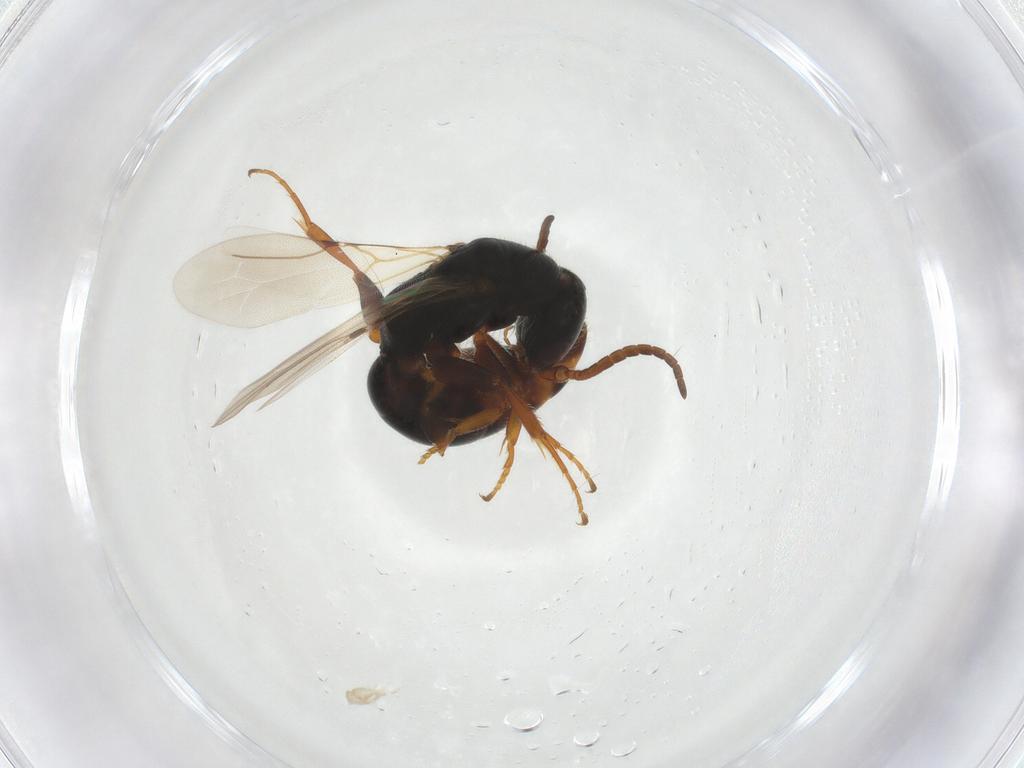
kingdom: Animalia
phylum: Arthropoda
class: Insecta
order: Hymenoptera
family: Bethylidae
